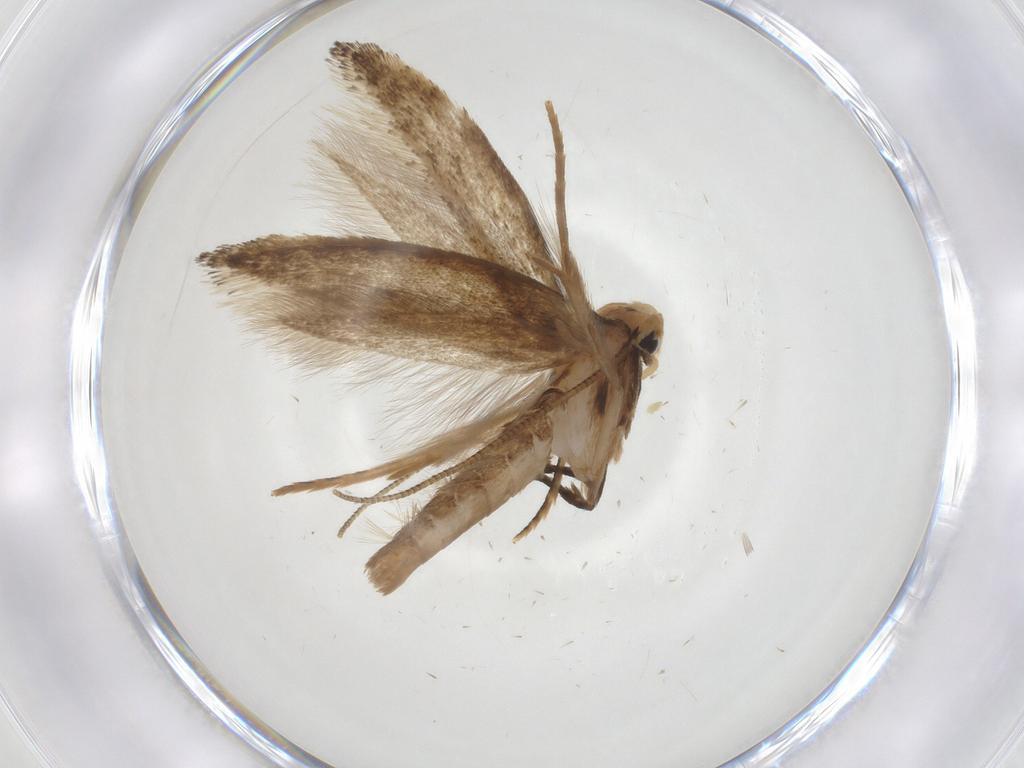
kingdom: Animalia
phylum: Arthropoda
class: Insecta
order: Lepidoptera
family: Tineidae
